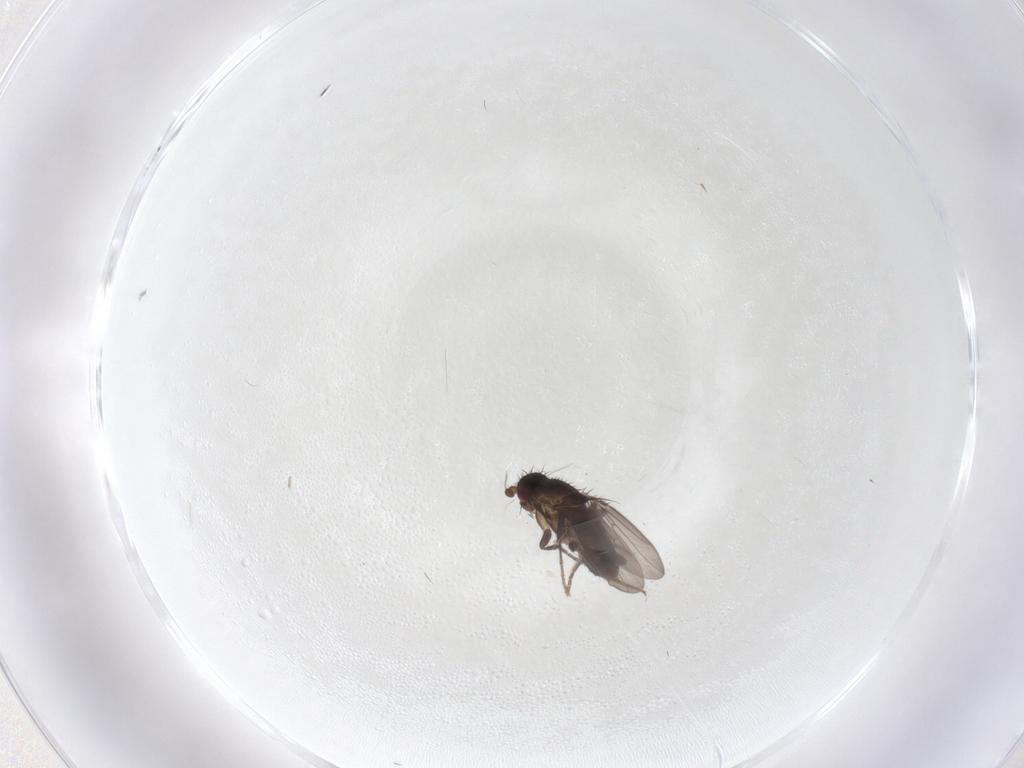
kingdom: Animalia
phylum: Arthropoda
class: Insecta
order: Diptera
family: Sphaeroceridae
